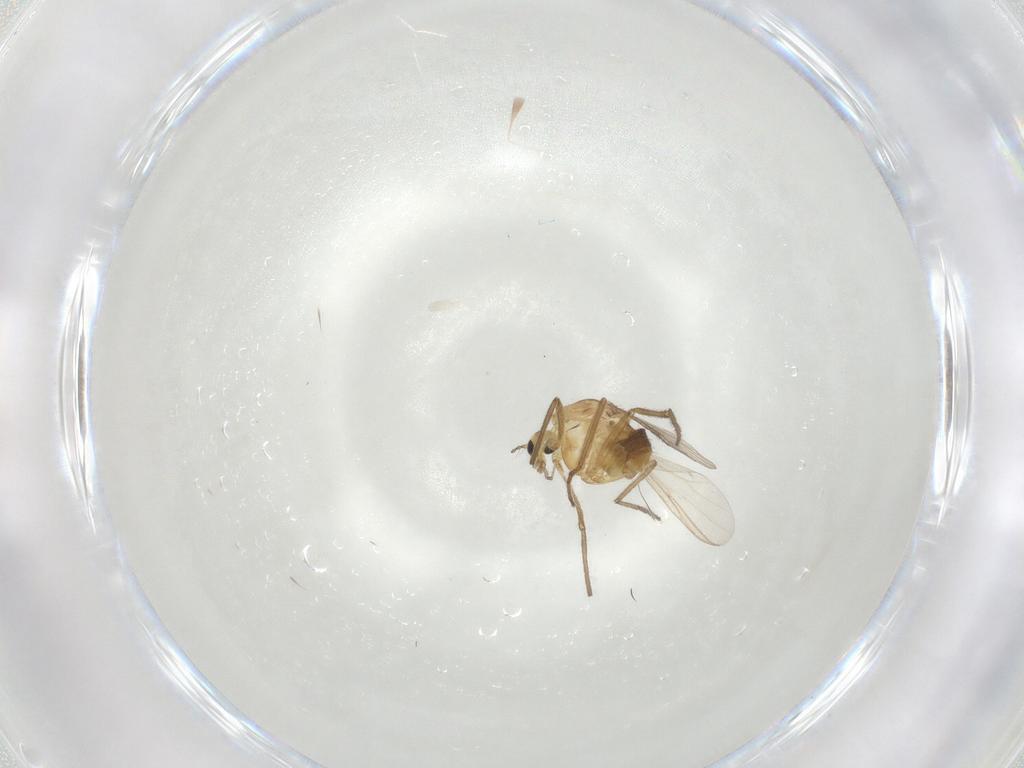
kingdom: Animalia
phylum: Arthropoda
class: Insecta
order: Diptera
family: Chironomidae
